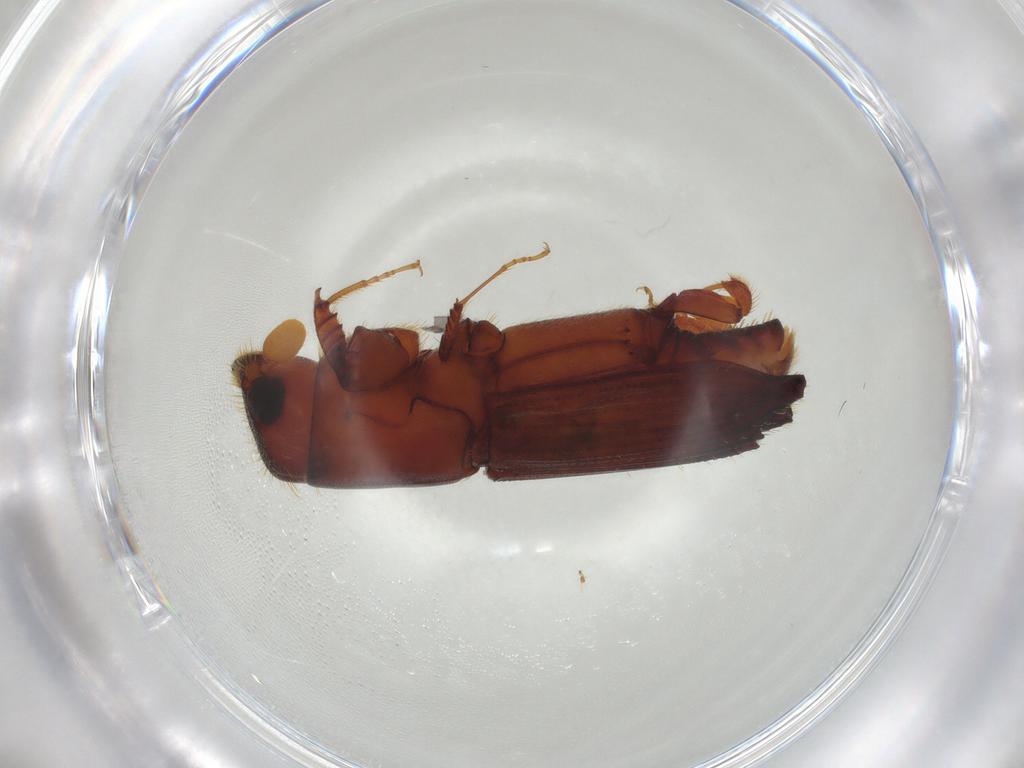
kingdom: Animalia
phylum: Arthropoda
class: Insecta
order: Coleoptera
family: Curculionidae
